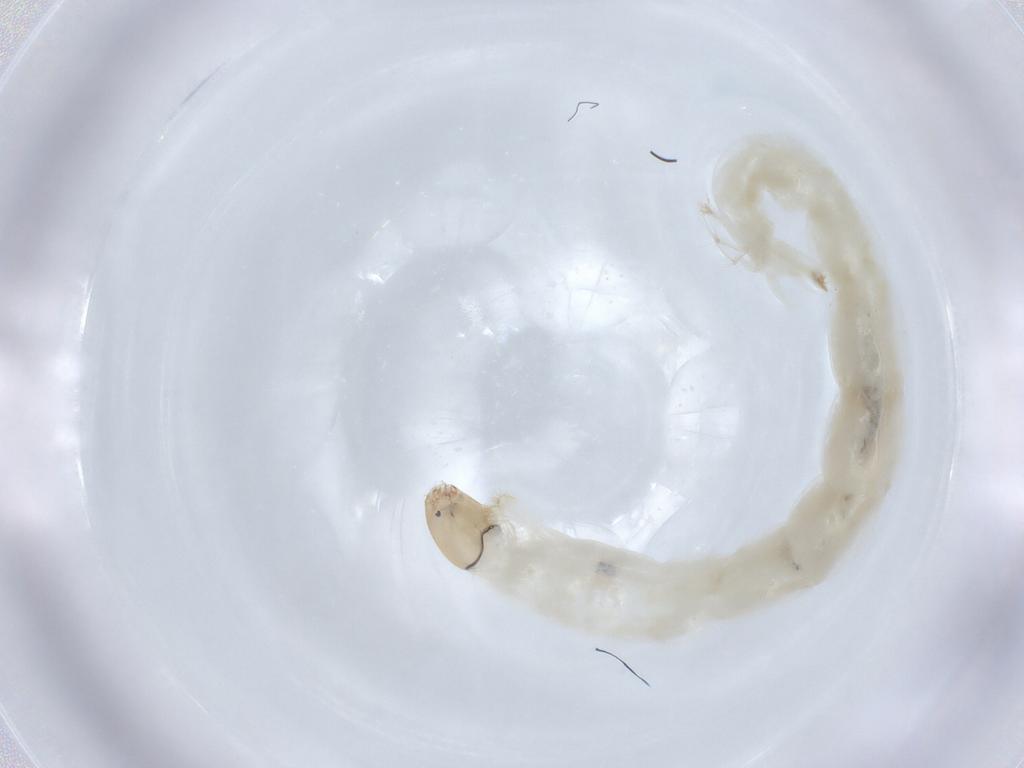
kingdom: Animalia
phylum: Arthropoda
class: Insecta
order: Diptera
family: Chironomidae
